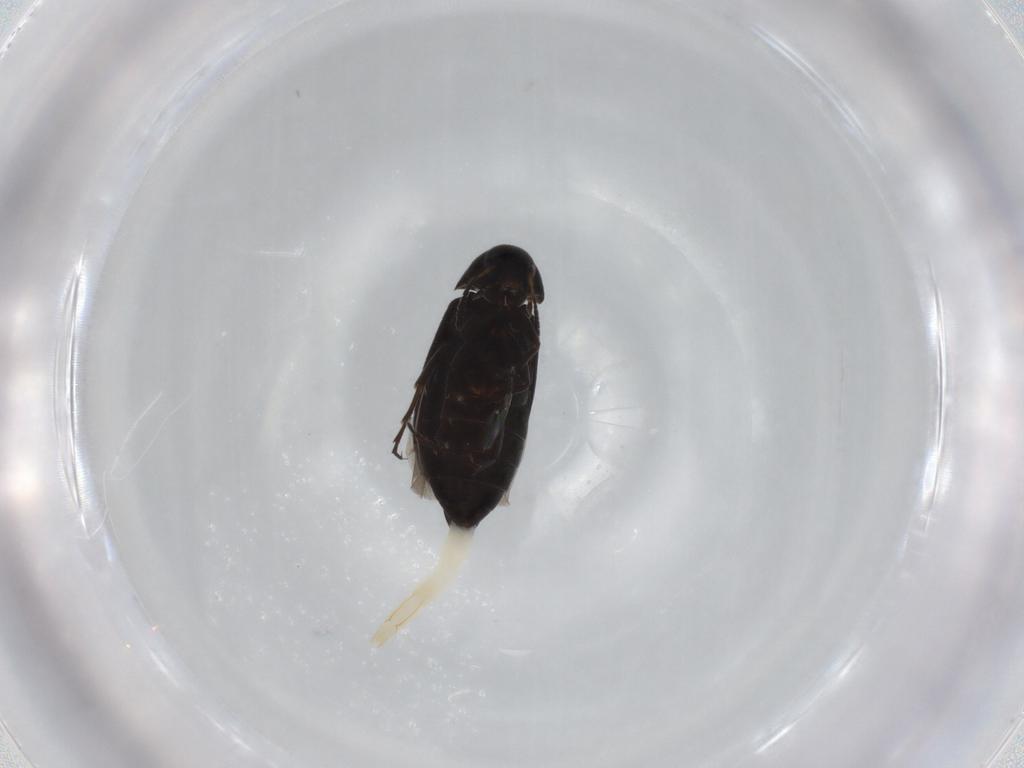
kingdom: Animalia
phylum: Arthropoda
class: Insecta
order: Coleoptera
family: Scraptiidae
